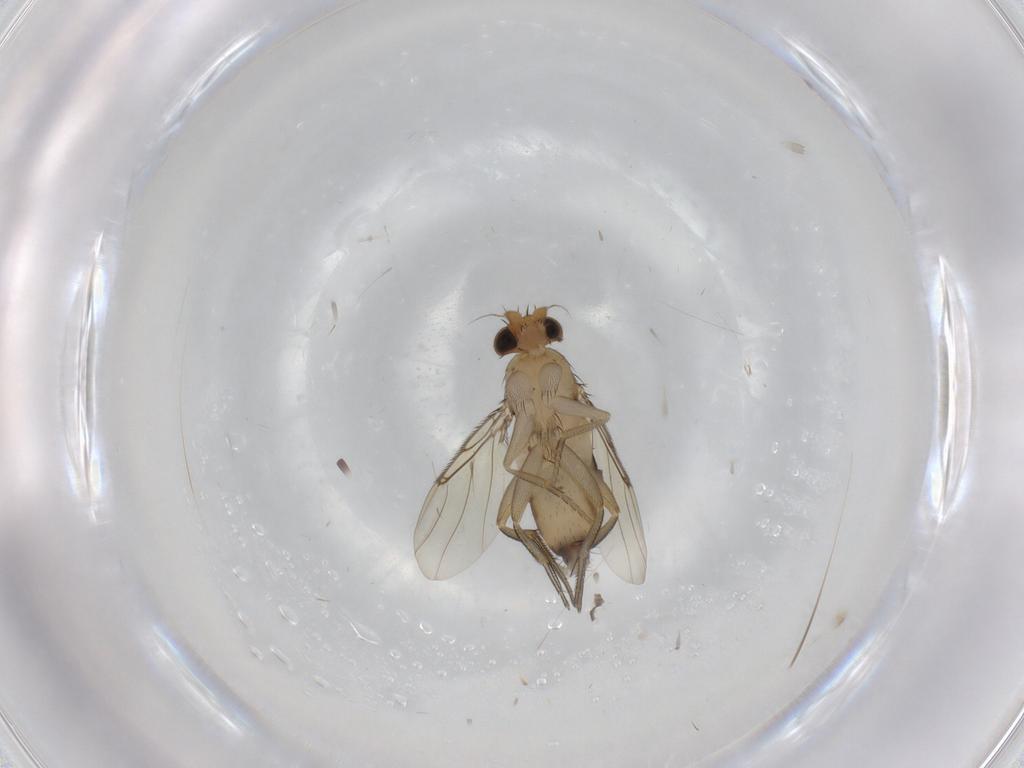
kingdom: Animalia
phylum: Arthropoda
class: Insecta
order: Diptera
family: Phoridae
